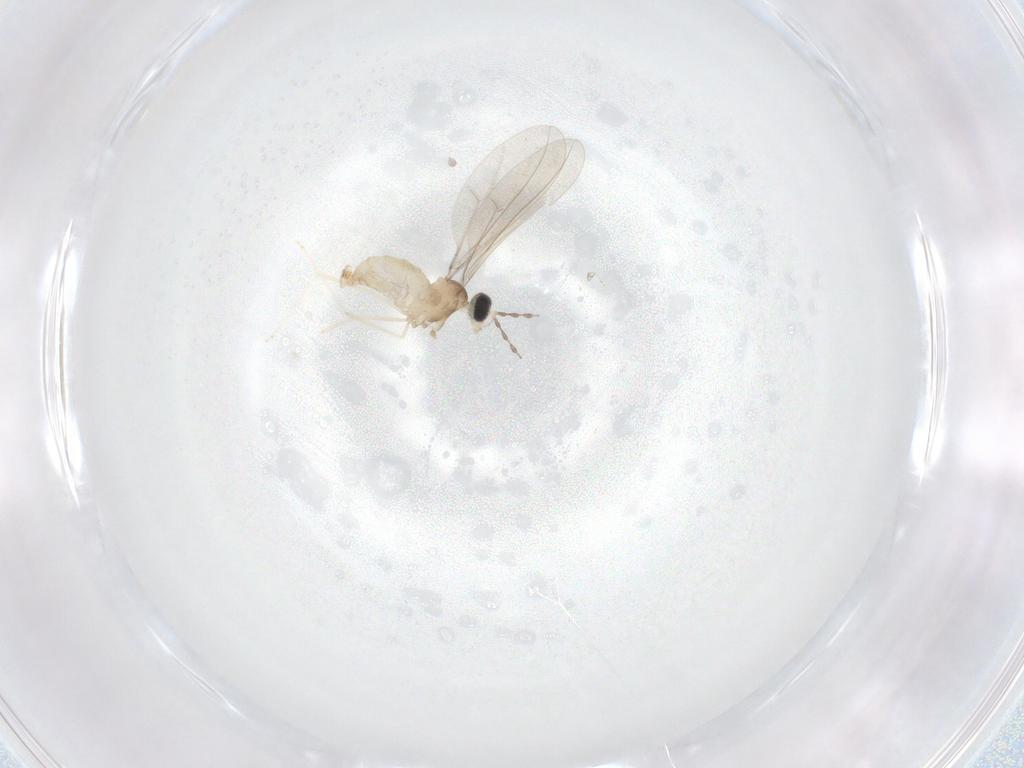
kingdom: Animalia
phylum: Arthropoda
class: Insecta
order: Diptera
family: Cecidomyiidae
